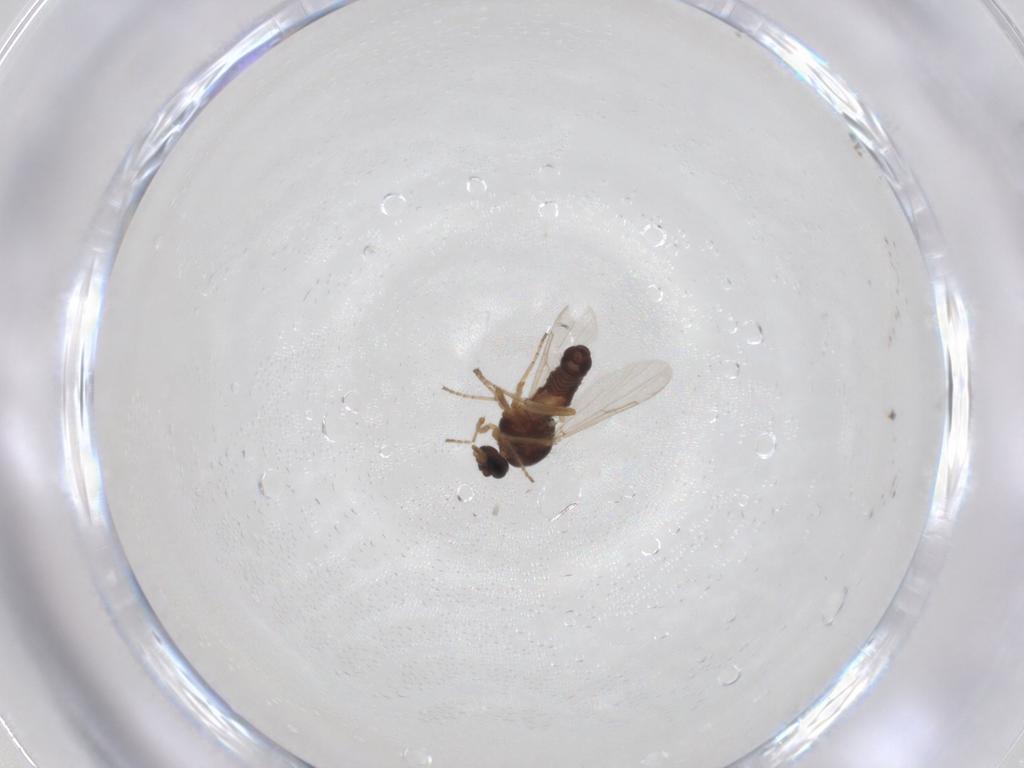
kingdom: Animalia
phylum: Arthropoda
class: Insecta
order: Diptera
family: Ceratopogonidae
